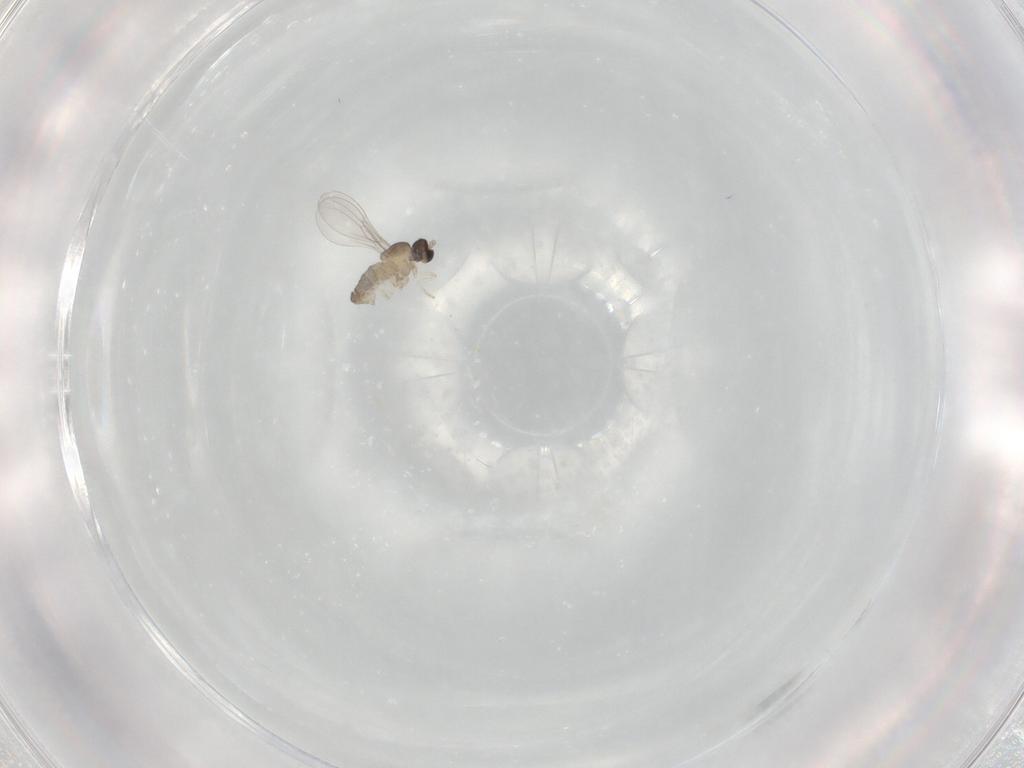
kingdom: Animalia
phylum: Arthropoda
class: Insecta
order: Diptera
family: Cecidomyiidae
